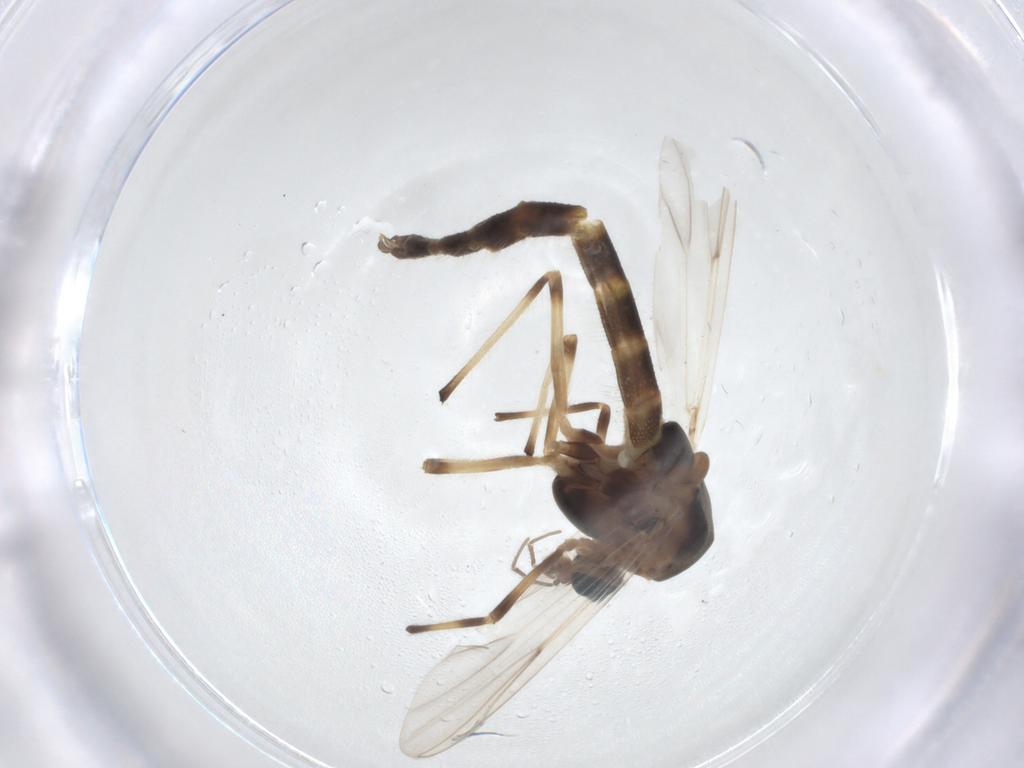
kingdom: Animalia
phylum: Arthropoda
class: Insecta
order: Diptera
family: Chironomidae
